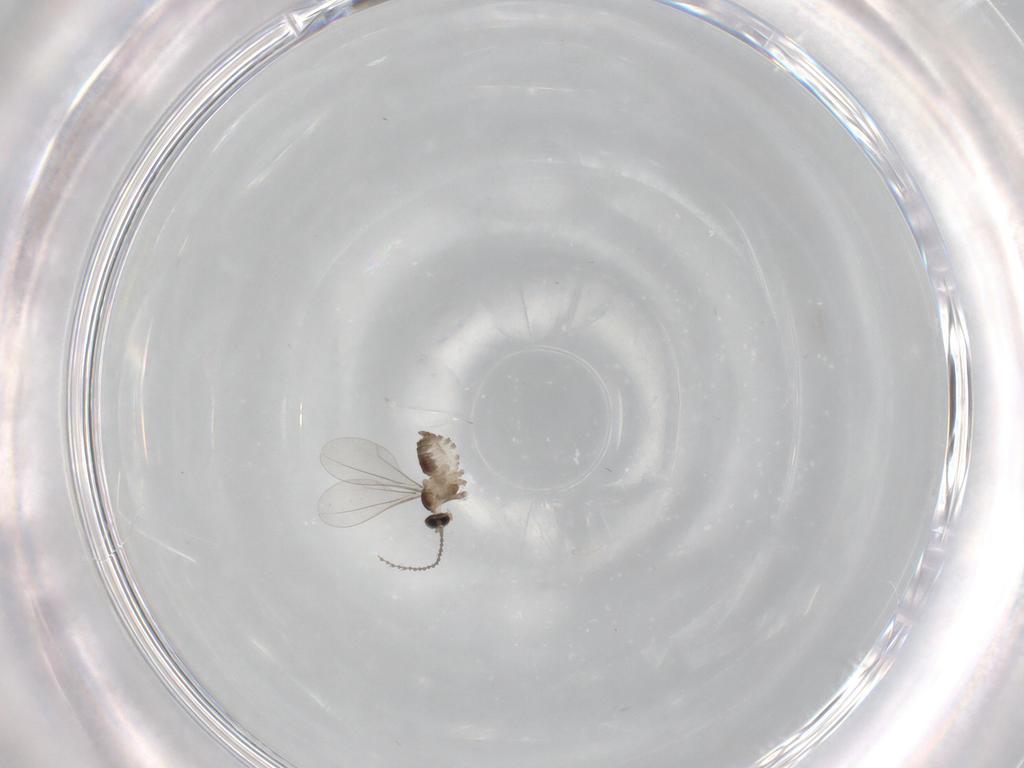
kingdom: Animalia
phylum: Arthropoda
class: Insecta
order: Diptera
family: Cecidomyiidae
